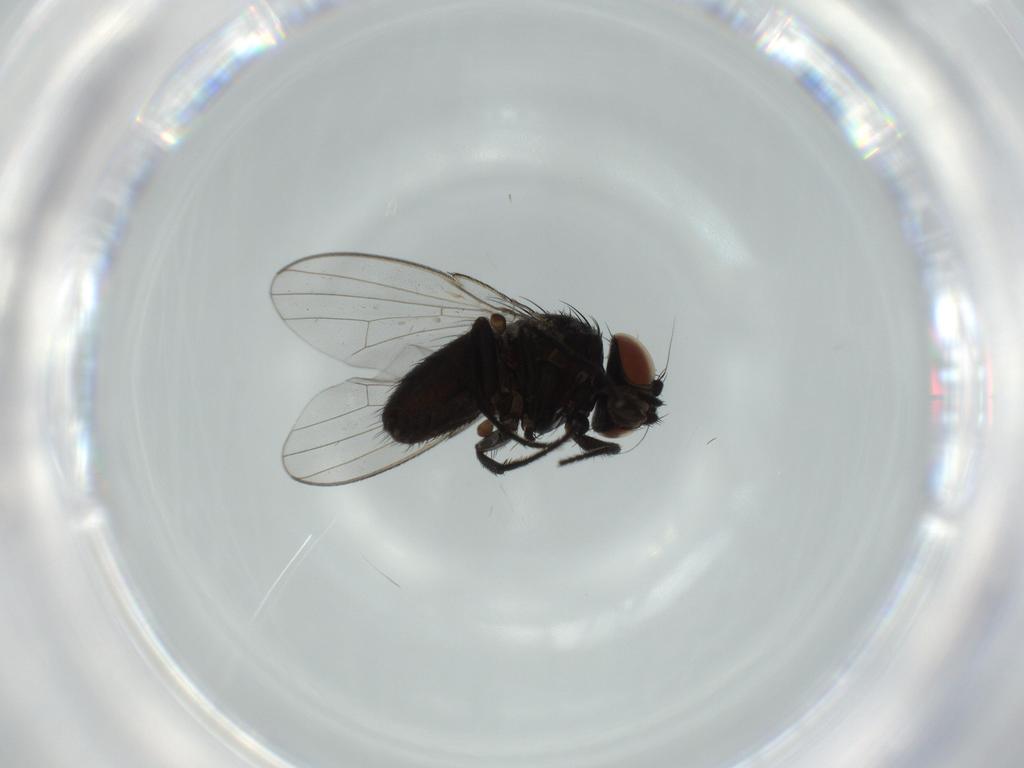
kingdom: Animalia
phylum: Arthropoda
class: Insecta
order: Diptera
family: Milichiidae
